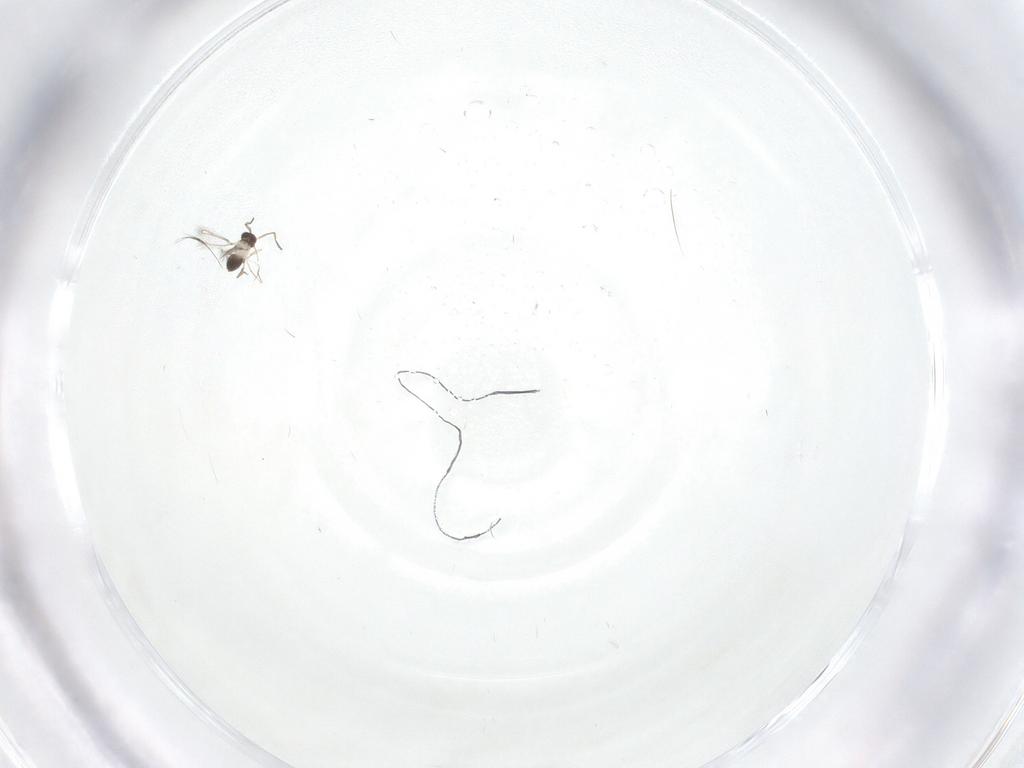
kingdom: Animalia
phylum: Arthropoda
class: Insecta
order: Hymenoptera
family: Mymaridae
